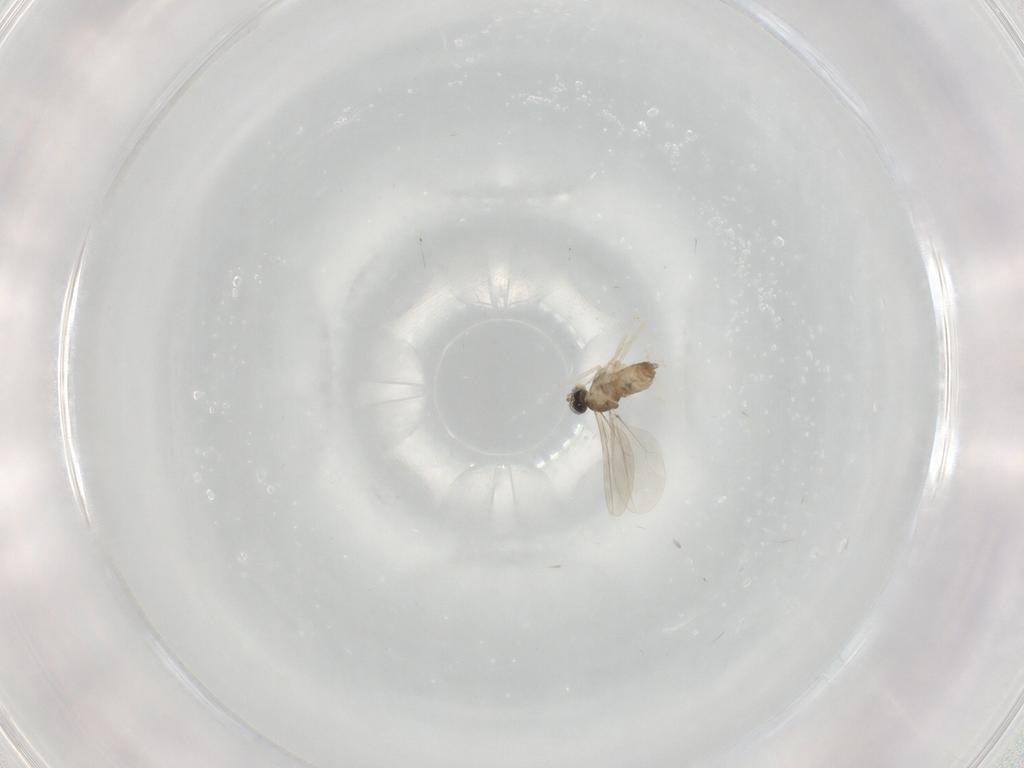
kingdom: Animalia
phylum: Arthropoda
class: Insecta
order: Diptera
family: Cecidomyiidae
